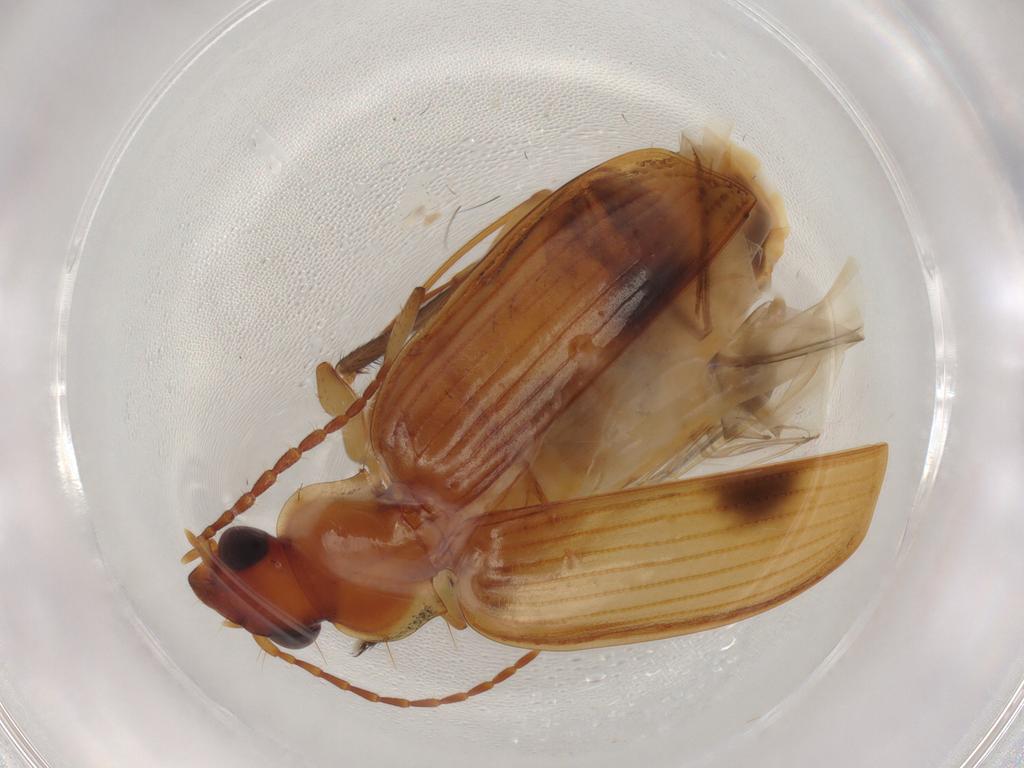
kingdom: Animalia
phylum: Arthropoda
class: Insecta
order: Coleoptera
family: Carabidae
